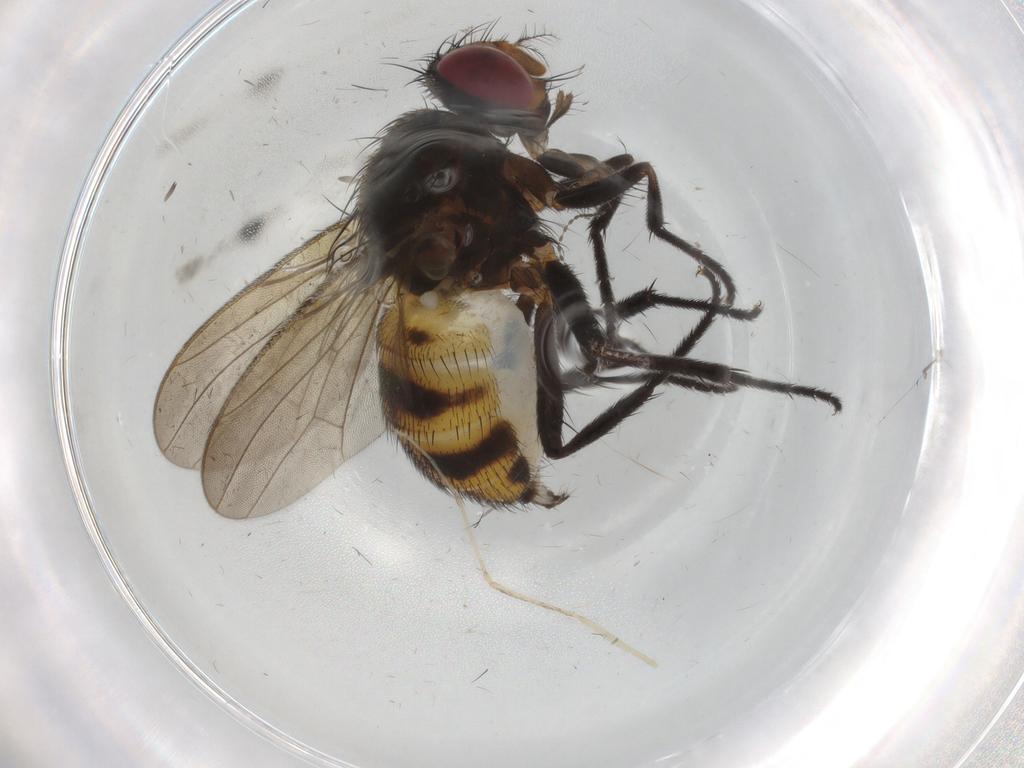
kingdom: Animalia
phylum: Arthropoda
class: Insecta
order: Diptera
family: Anthomyiidae
